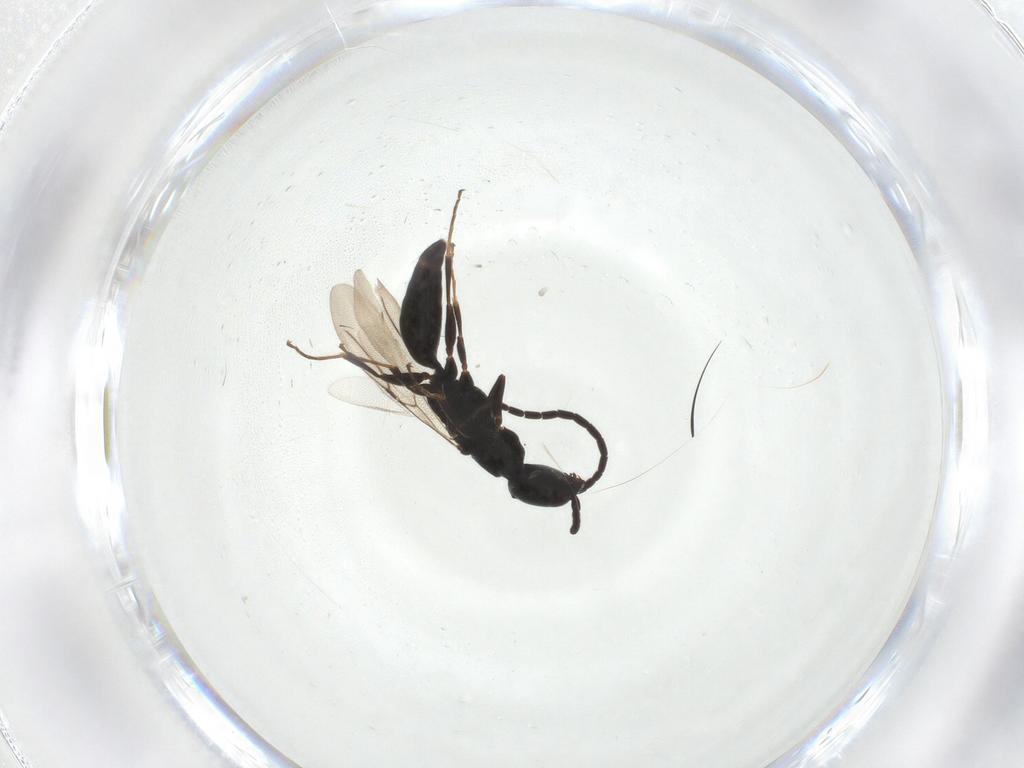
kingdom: Animalia
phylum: Arthropoda
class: Insecta
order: Hymenoptera
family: Bethylidae
